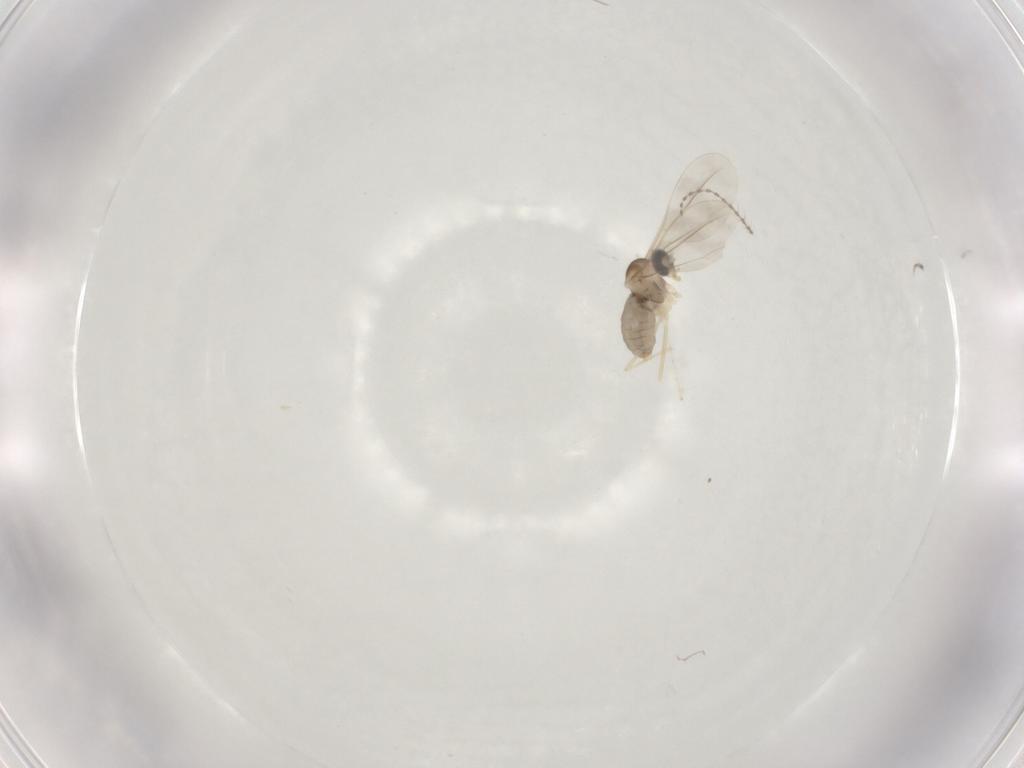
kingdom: Animalia
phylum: Arthropoda
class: Insecta
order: Diptera
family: Cecidomyiidae
